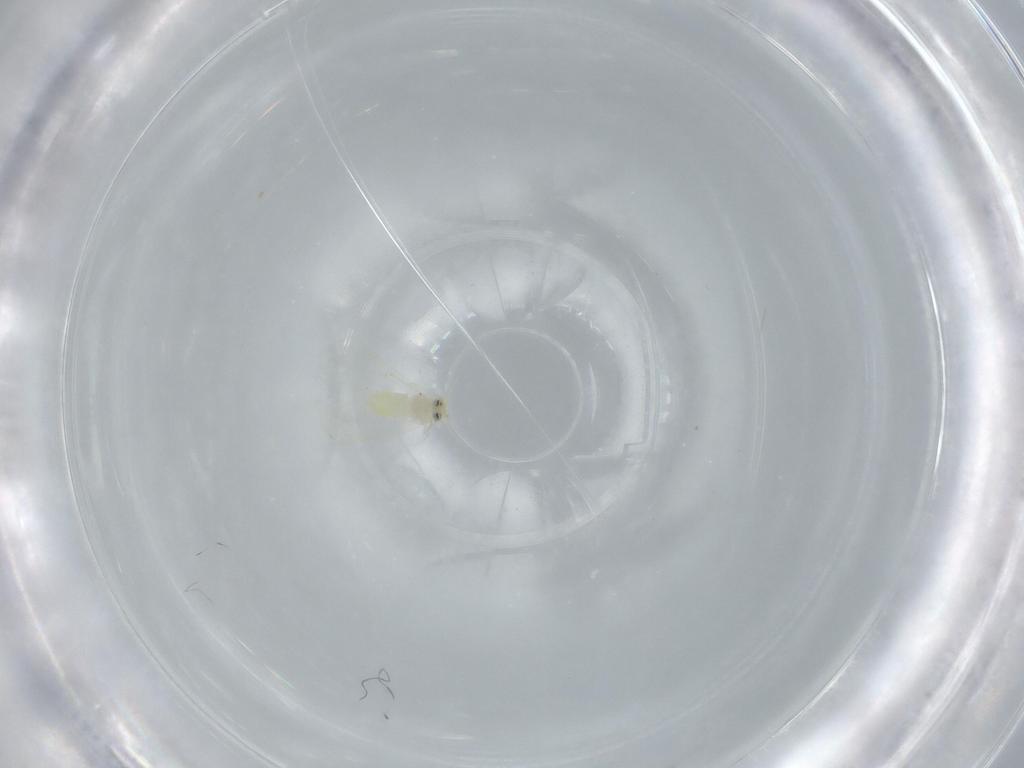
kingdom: Animalia
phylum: Arthropoda
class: Insecta
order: Hemiptera
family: Aleyrodidae
